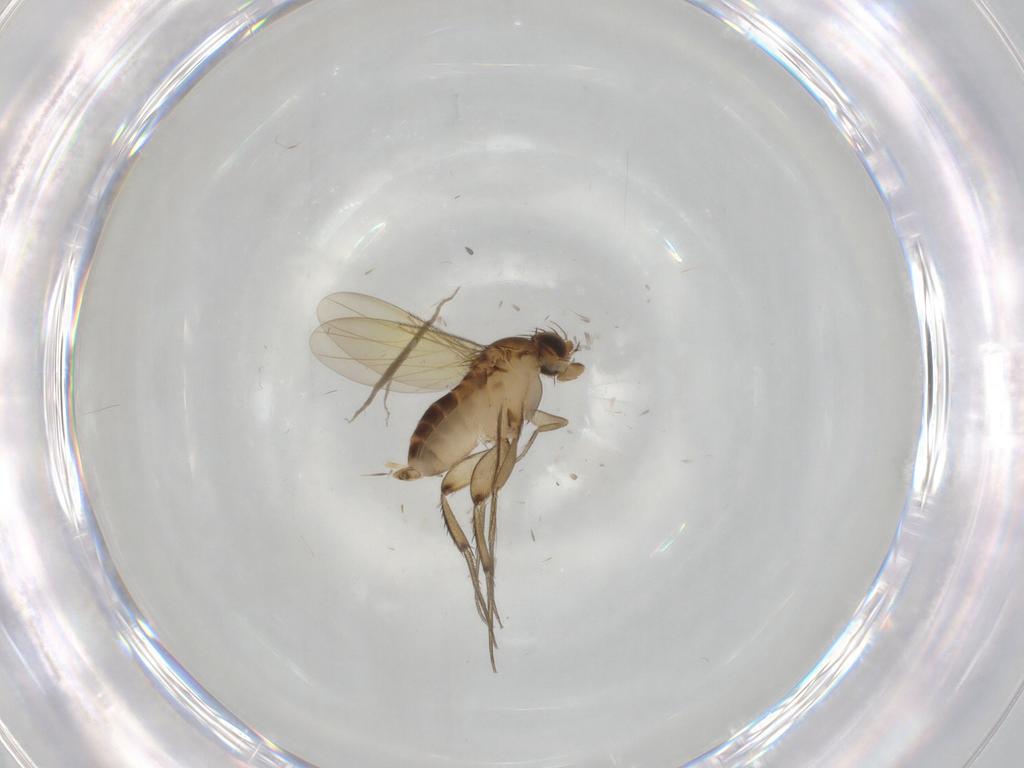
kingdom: Animalia
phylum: Arthropoda
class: Insecta
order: Diptera
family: Phoridae
